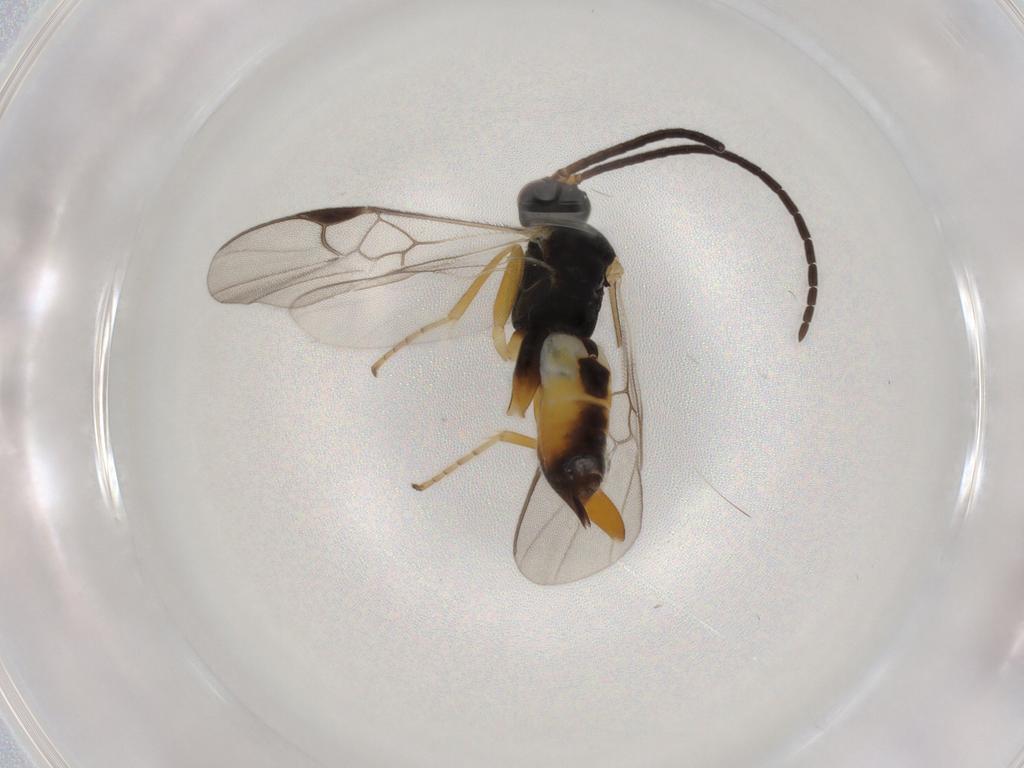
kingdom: Animalia
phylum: Arthropoda
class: Insecta
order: Hymenoptera
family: Braconidae
